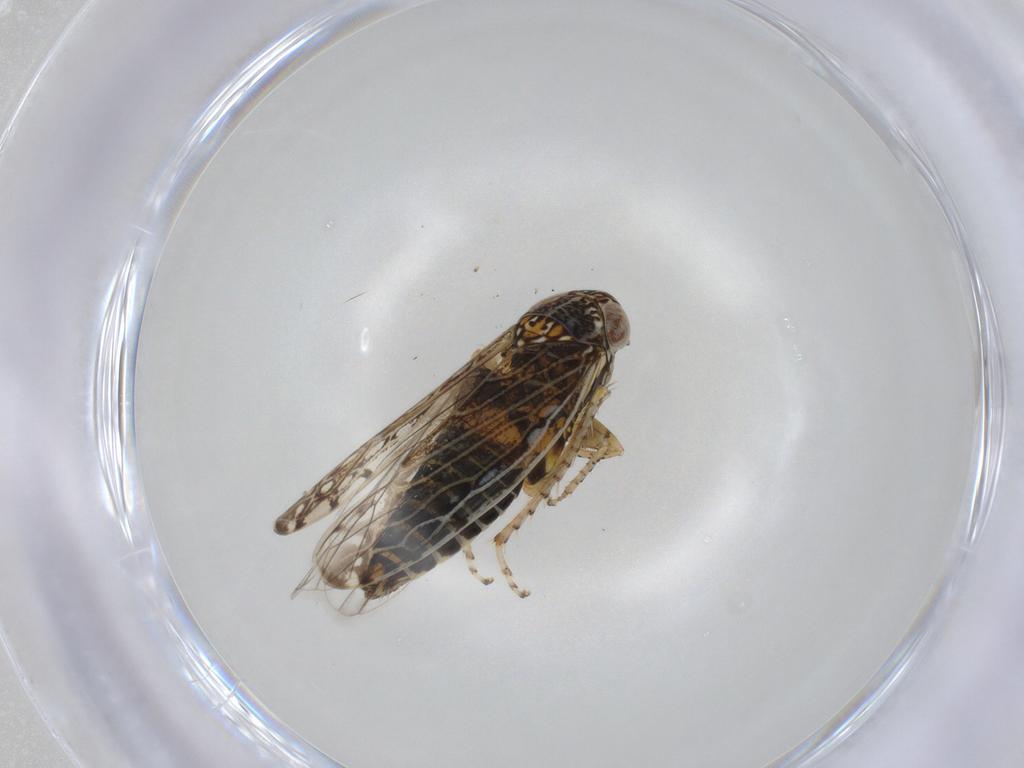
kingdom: Animalia
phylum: Arthropoda
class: Insecta
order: Hemiptera
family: Cicadellidae
